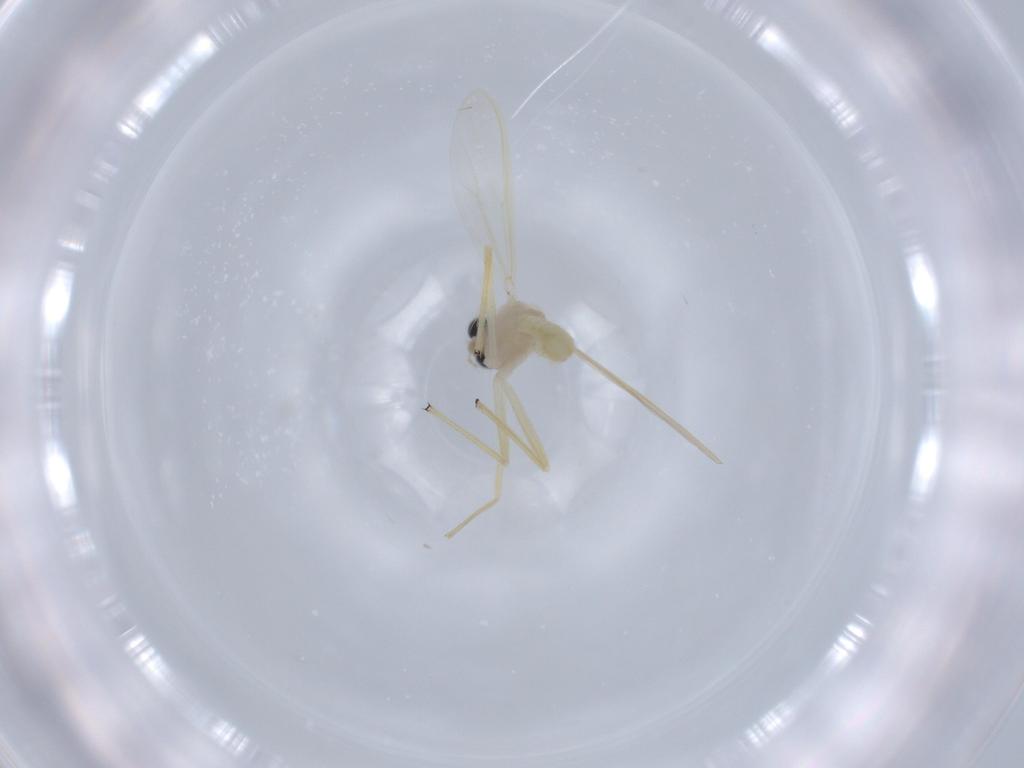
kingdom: Animalia
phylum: Arthropoda
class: Insecta
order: Diptera
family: Chironomidae
